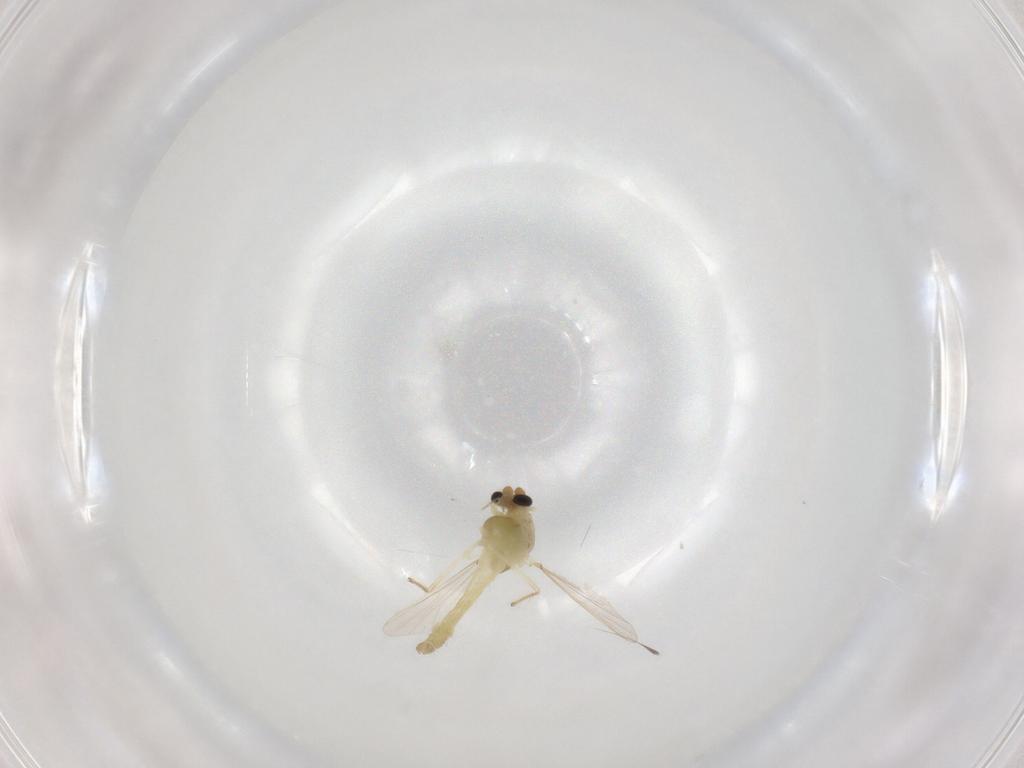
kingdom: Animalia
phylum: Arthropoda
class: Insecta
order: Diptera
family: Chironomidae
